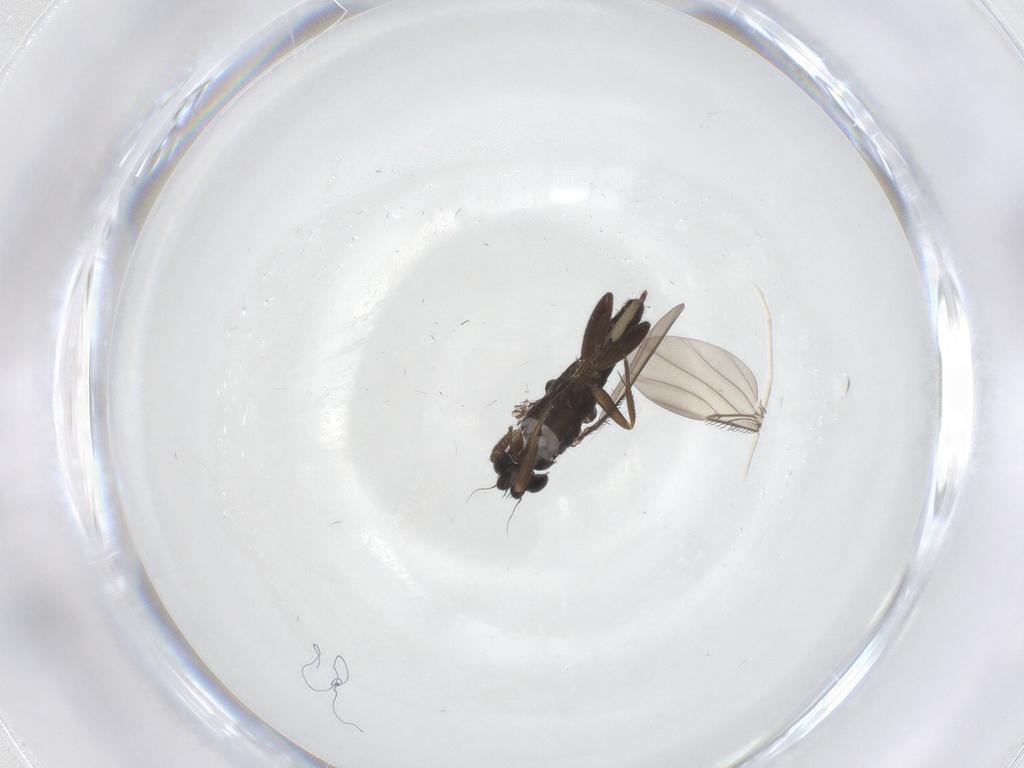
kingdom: Animalia
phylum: Arthropoda
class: Insecta
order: Diptera
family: Phoridae
